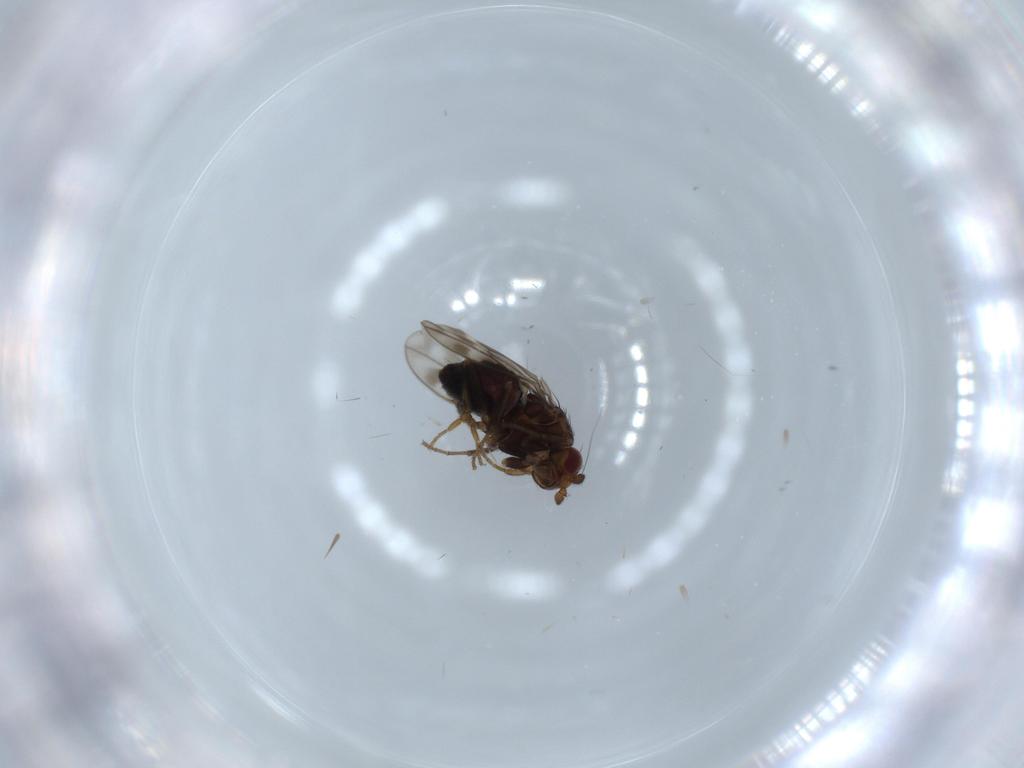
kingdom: Animalia
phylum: Arthropoda
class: Insecta
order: Diptera
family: Sphaeroceridae
